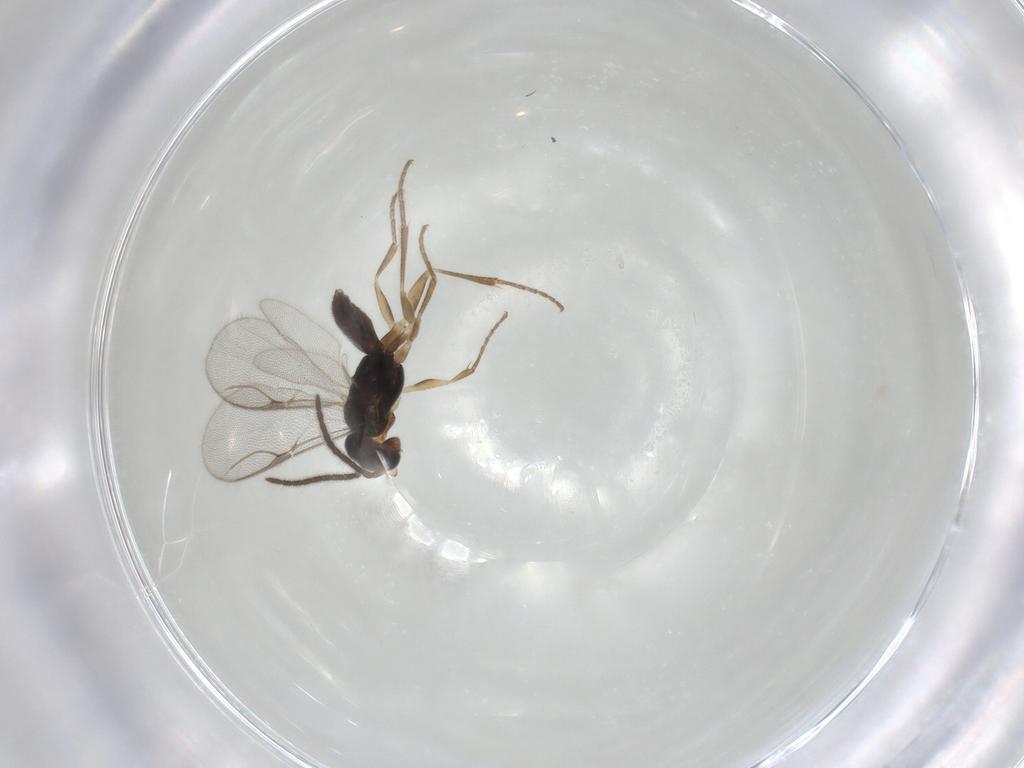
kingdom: Animalia
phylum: Arthropoda
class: Insecta
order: Hymenoptera
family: Dryinidae
